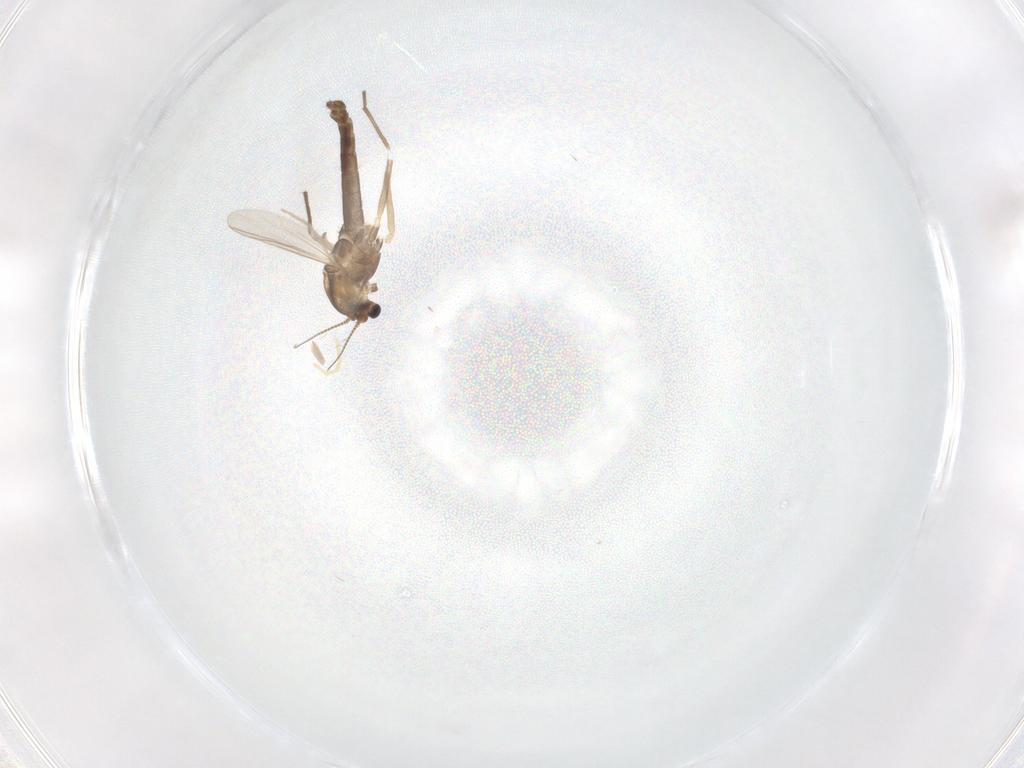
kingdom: Animalia
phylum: Arthropoda
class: Insecta
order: Diptera
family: Chironomidae
